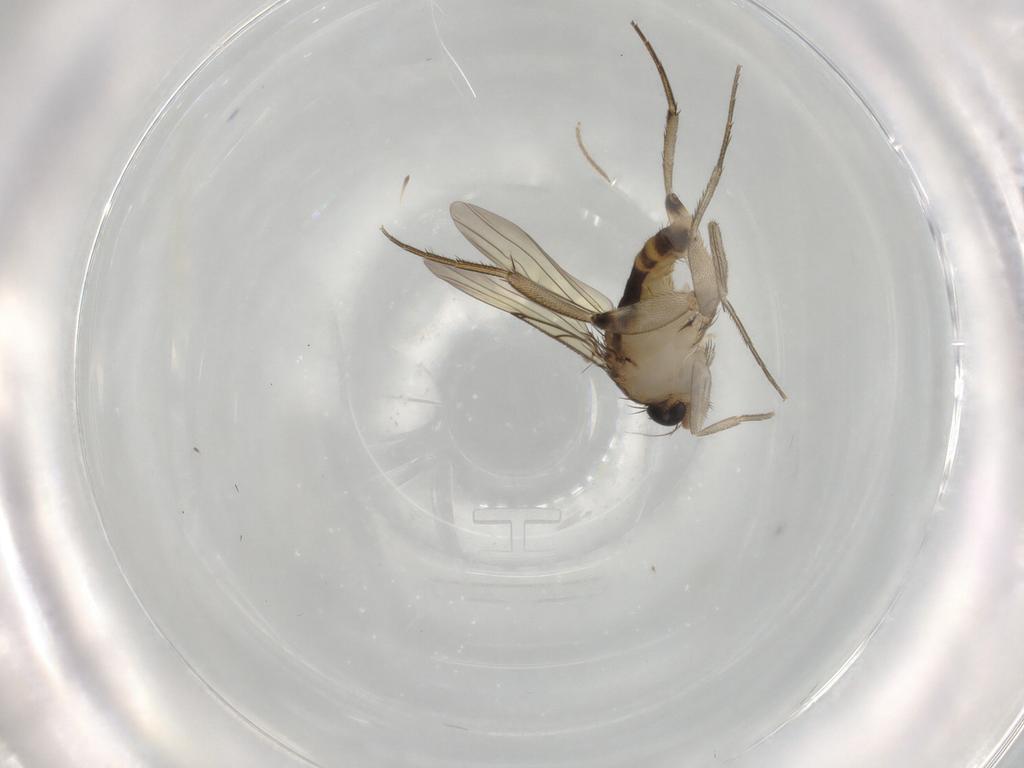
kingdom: Animalia
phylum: Arthropoda
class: Insecta
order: Diptera
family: Phoridae
